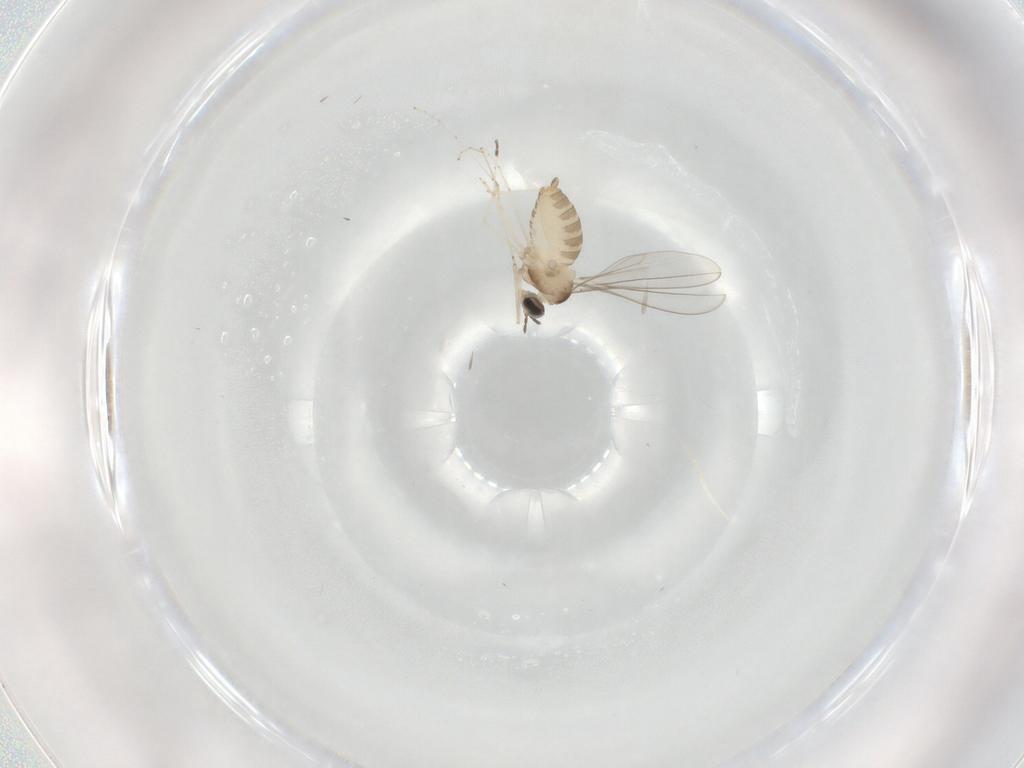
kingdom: Animalia
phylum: Arthropoda
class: Insecta
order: Diptera
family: Cecidomyiidae
